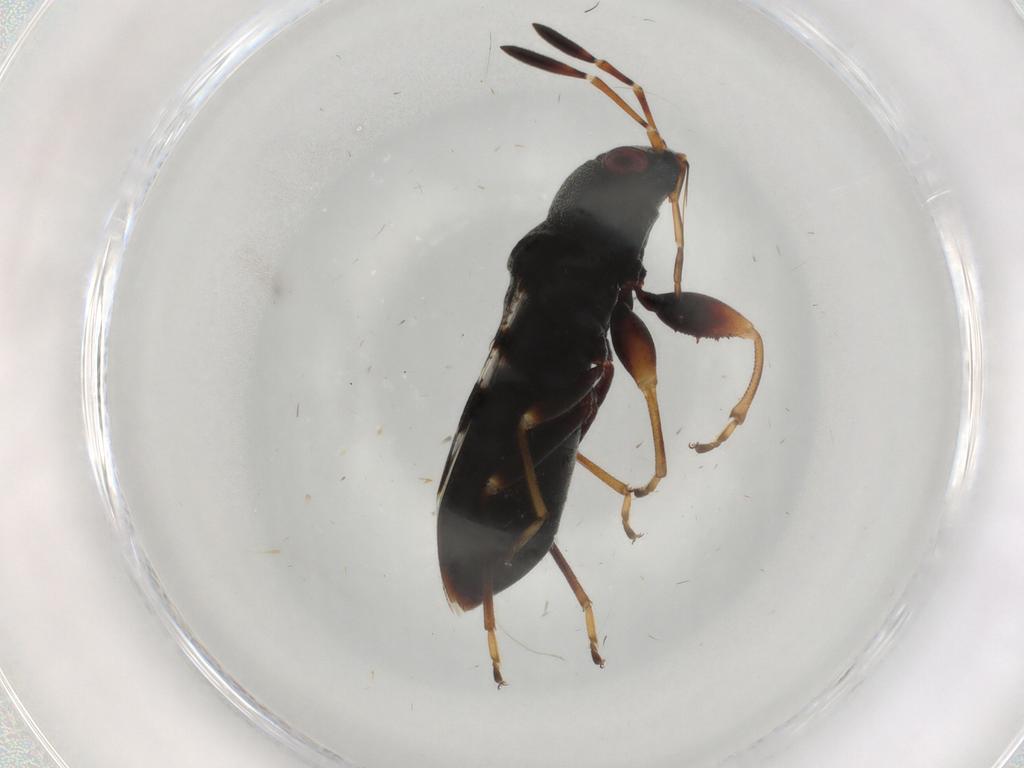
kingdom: Animalia
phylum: Arthropoda
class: Insecta
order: Hemiptera
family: Rhyparochromidae
